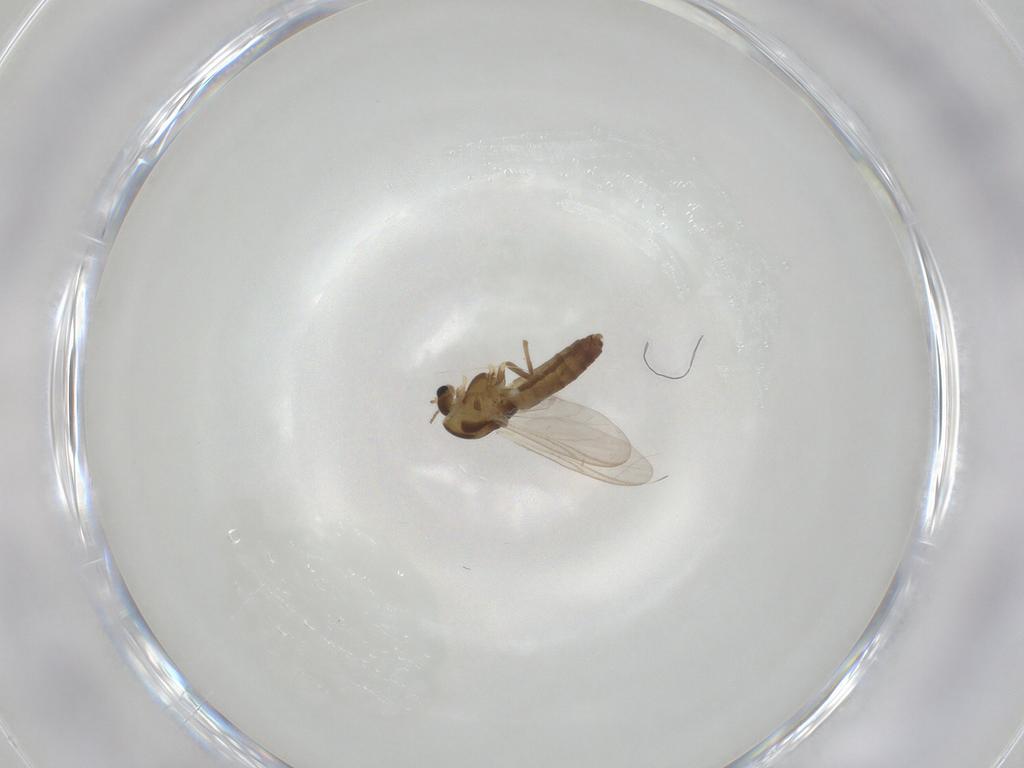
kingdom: Animalia
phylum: Arthropoda
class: Insecta
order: Diptera
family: Chironomidae
